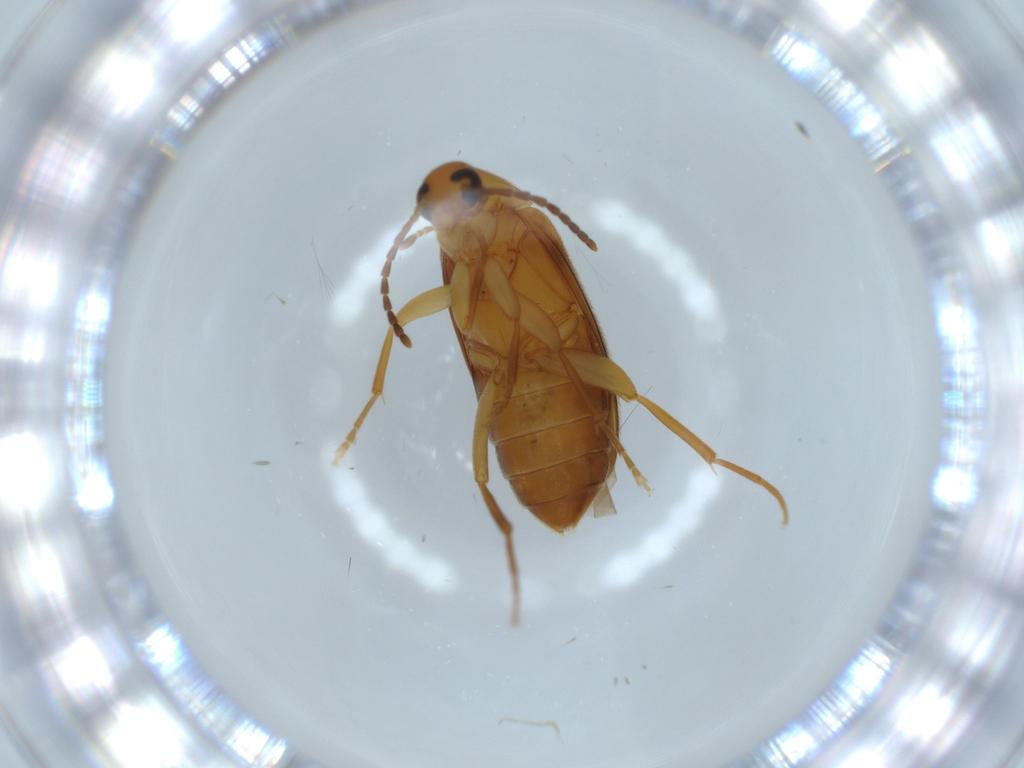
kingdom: Animalia
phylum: Arthropoda
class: Insecta
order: Coleoptera
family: Scraptiidae
